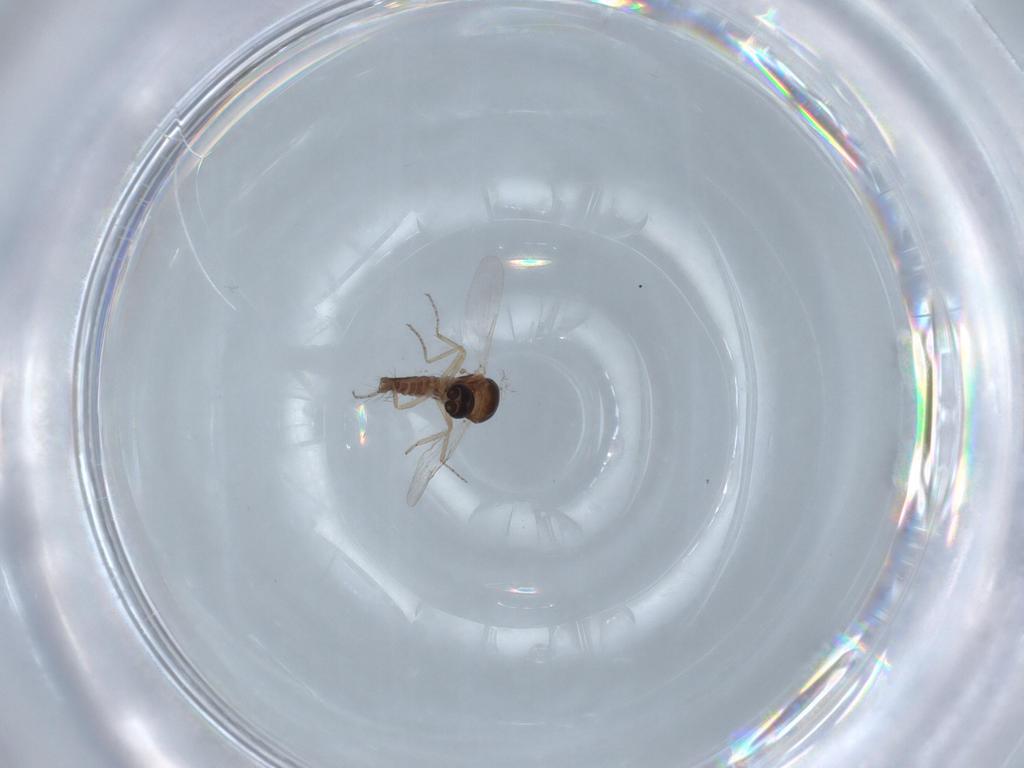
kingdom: Animalia
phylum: Arthropoda
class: Insecta
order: Diptera
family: Ceratopogonidae
